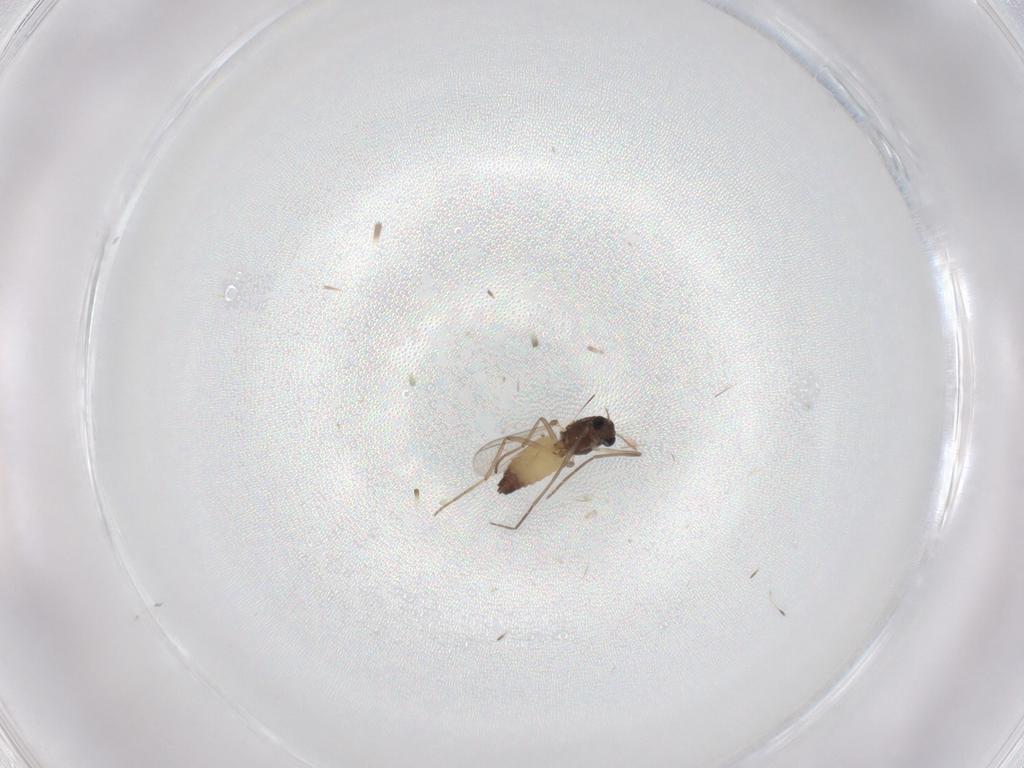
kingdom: Animalia
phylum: Arthropoda
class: Insecta
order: Diptera
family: Chironomidae
